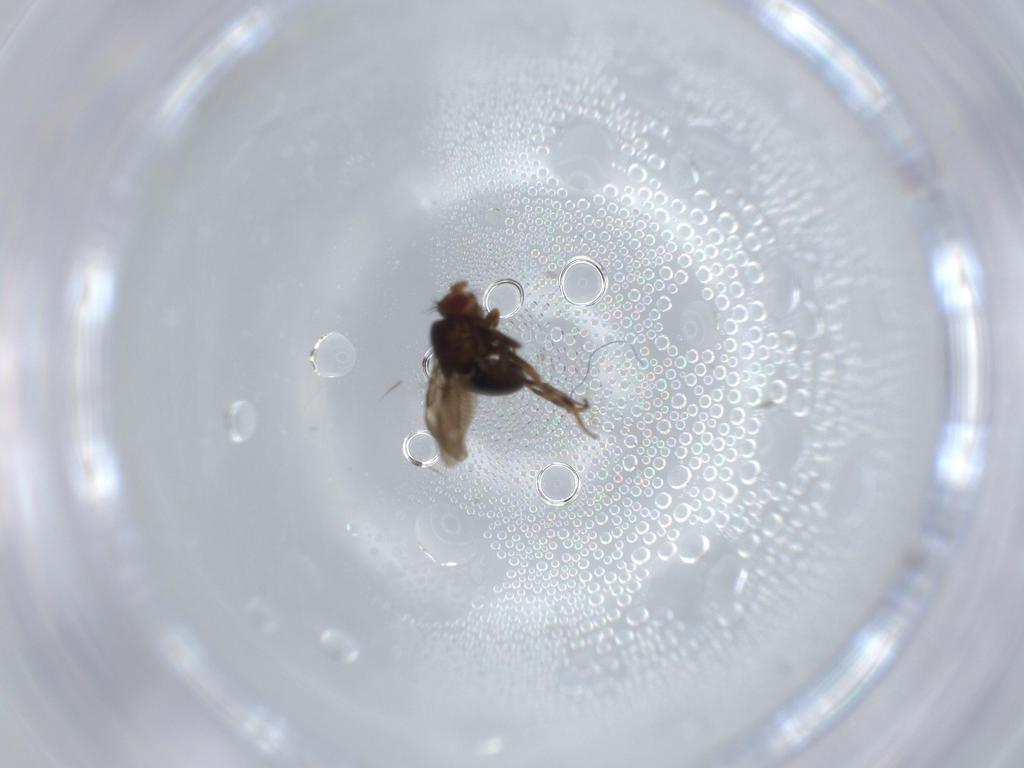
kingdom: Animalia
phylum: Arthropoda
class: Insecta
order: Diptera
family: Sphaeroceridae
